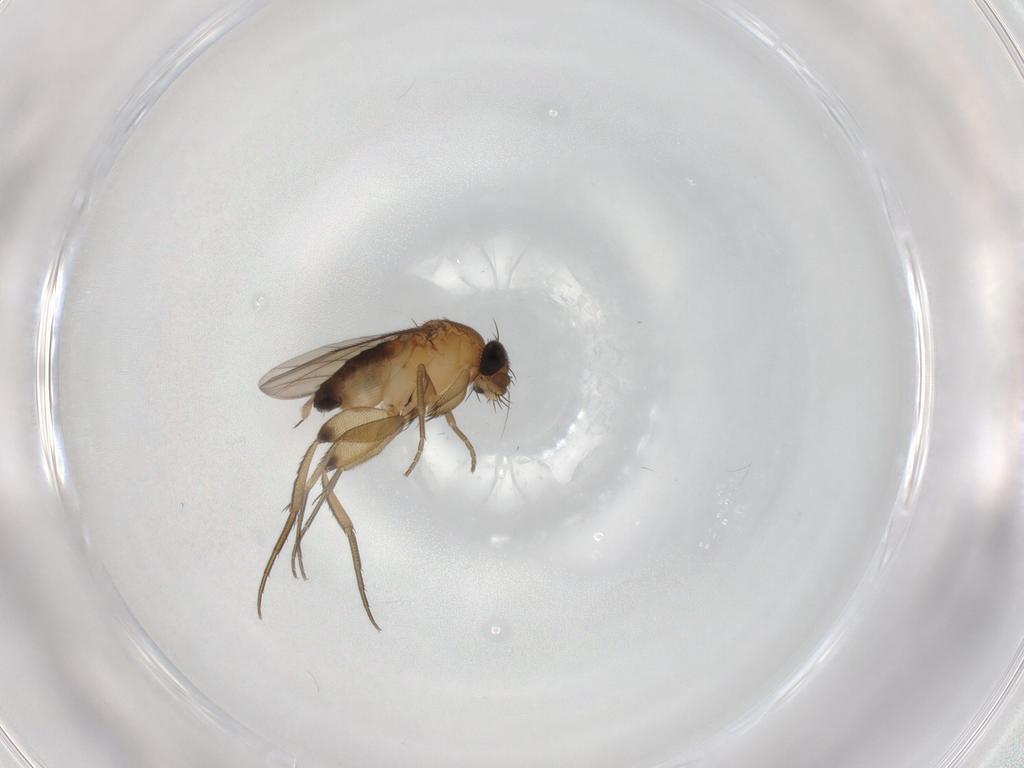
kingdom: Animalia
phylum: Arthropoda
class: Insecta
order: Diptera
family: Phoridae
